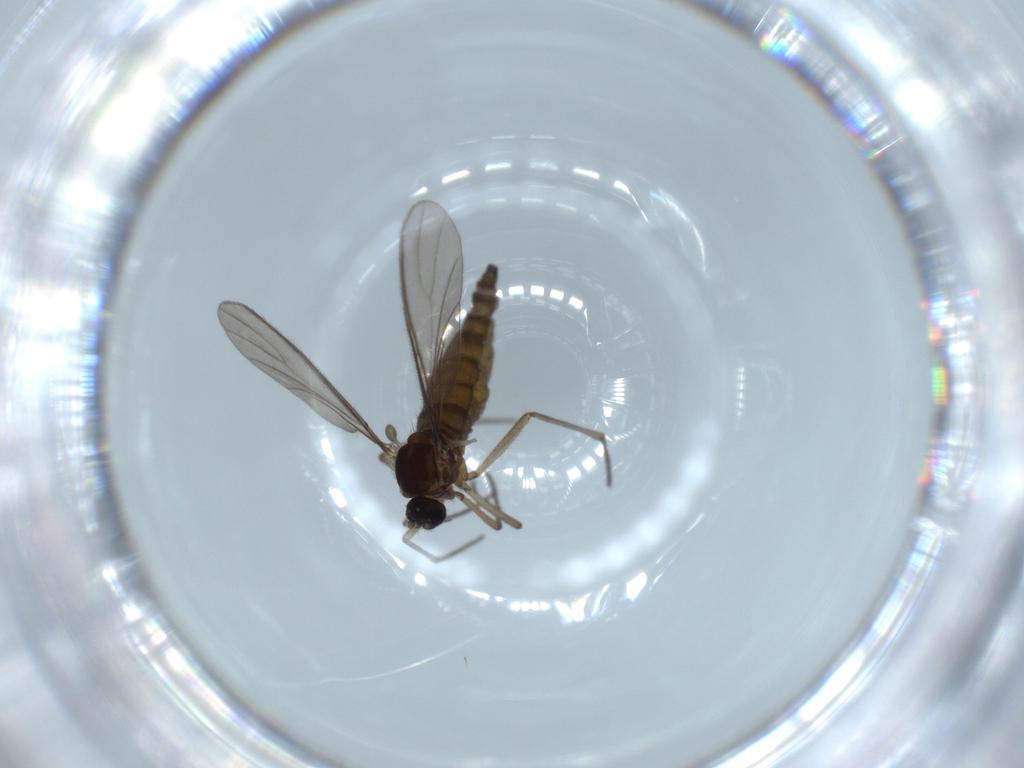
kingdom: Animalia
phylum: Arthropoda
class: Insecta
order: Diptera
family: Sciaridae
